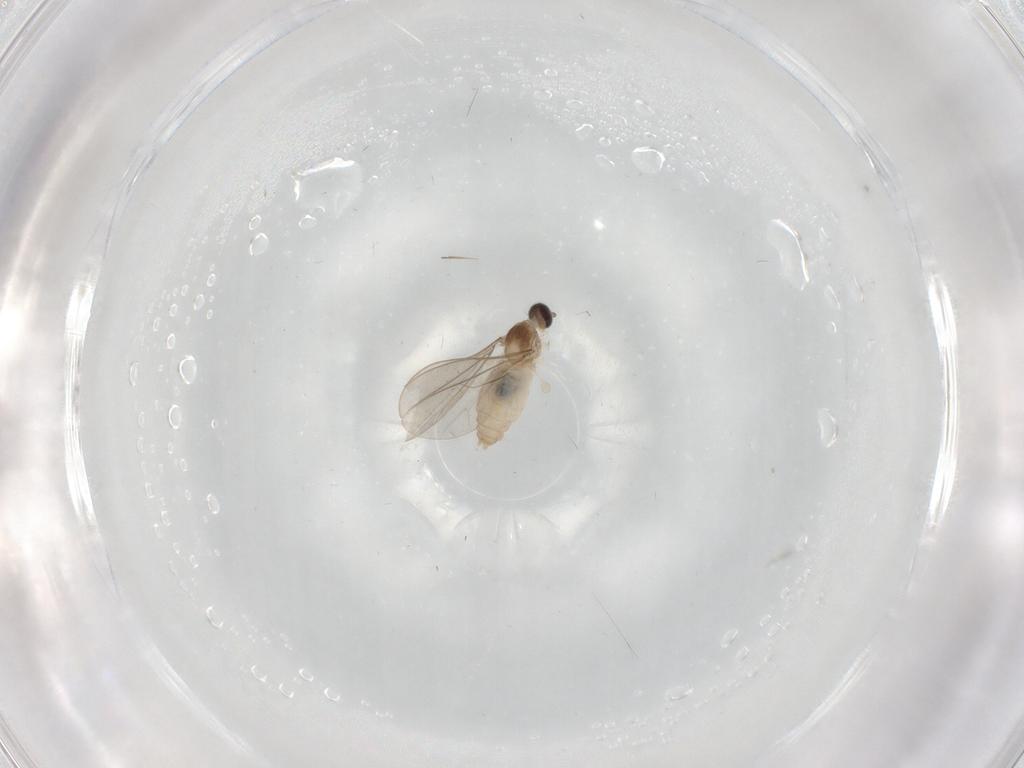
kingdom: Animalia
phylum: Arthropoda
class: Insecta
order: Diptera
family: Cecidomyiidae
